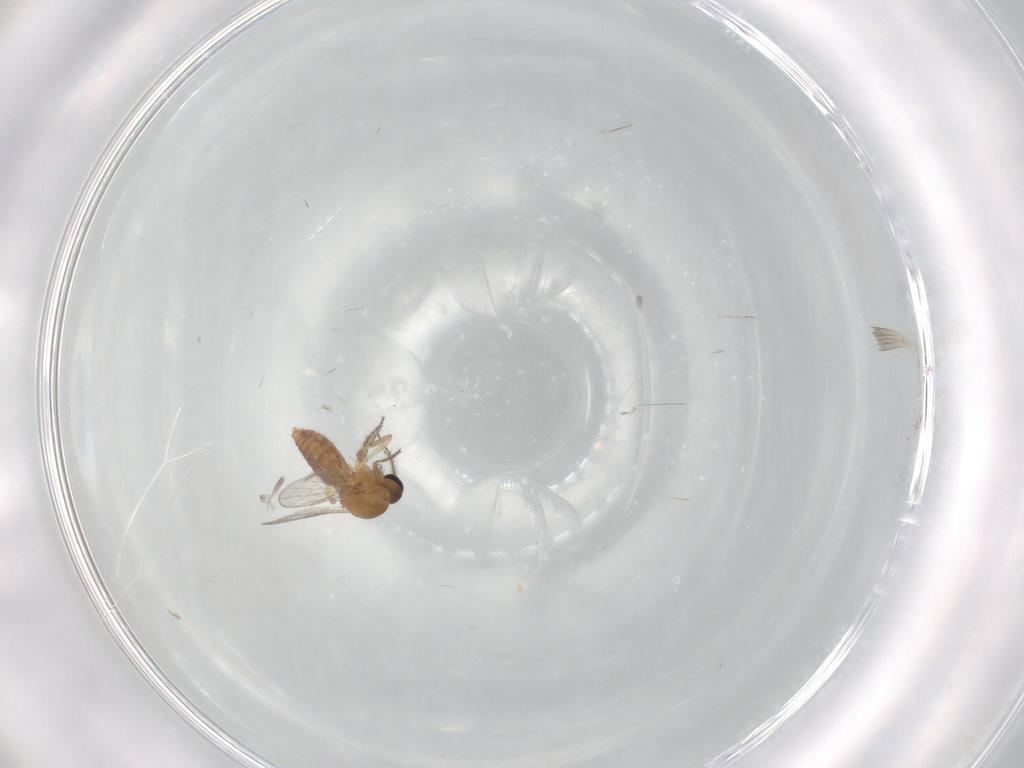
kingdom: Animalia
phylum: Arthropoda
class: Insecta
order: Diptera
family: Ceratopogonidae
